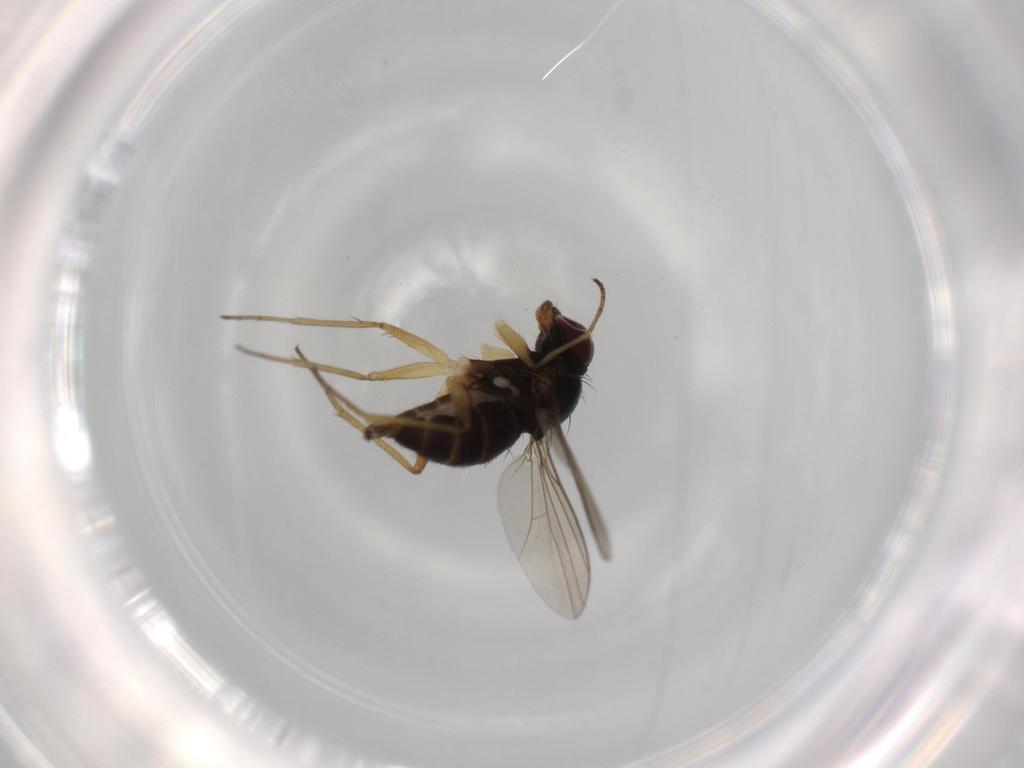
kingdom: Animalia
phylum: Arthropoda
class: Insecta
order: Diptera
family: Dolichopodidae
